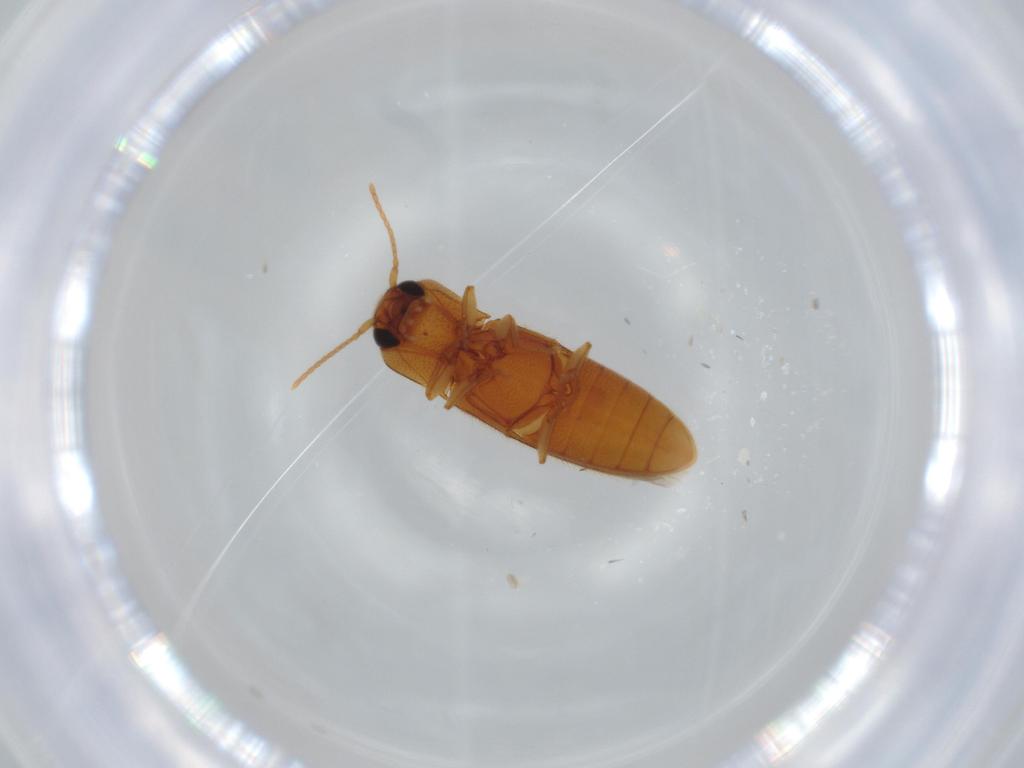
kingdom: Animalia
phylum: Arthropoda
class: Insecta
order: Coleoptera
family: Elateridae
